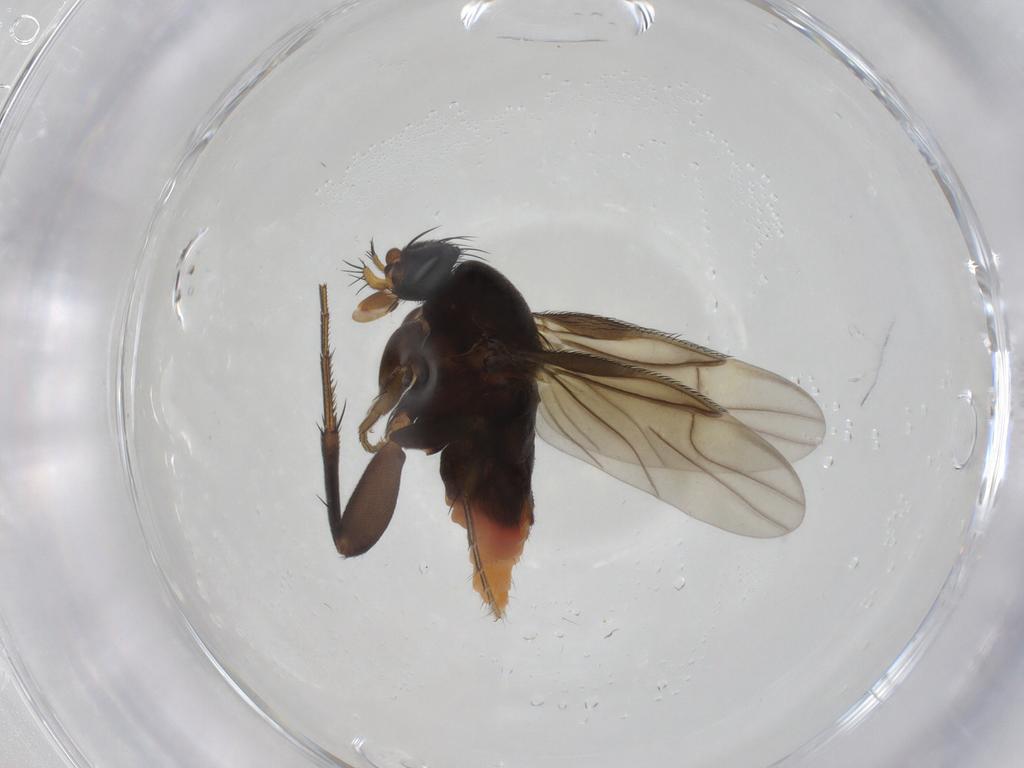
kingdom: Animalia
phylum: Arthropoda
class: Insecta
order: Diptera
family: Phoridae
